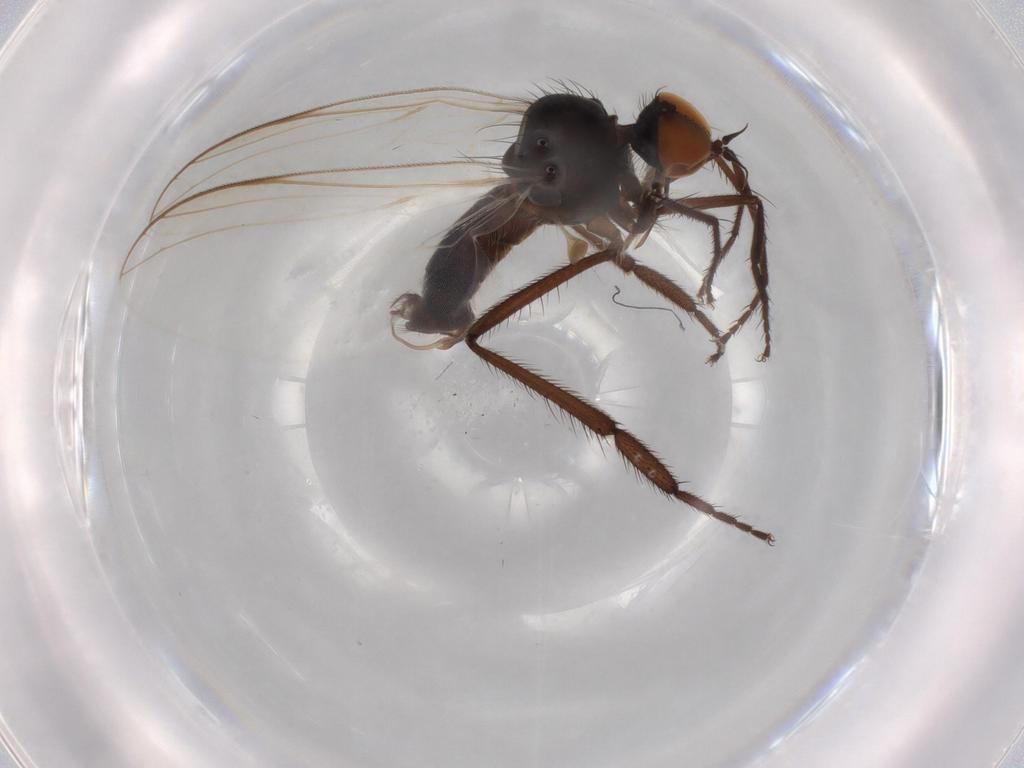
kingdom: Animalia
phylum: Arthropoda
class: Insecta
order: Diptera
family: Empididae
